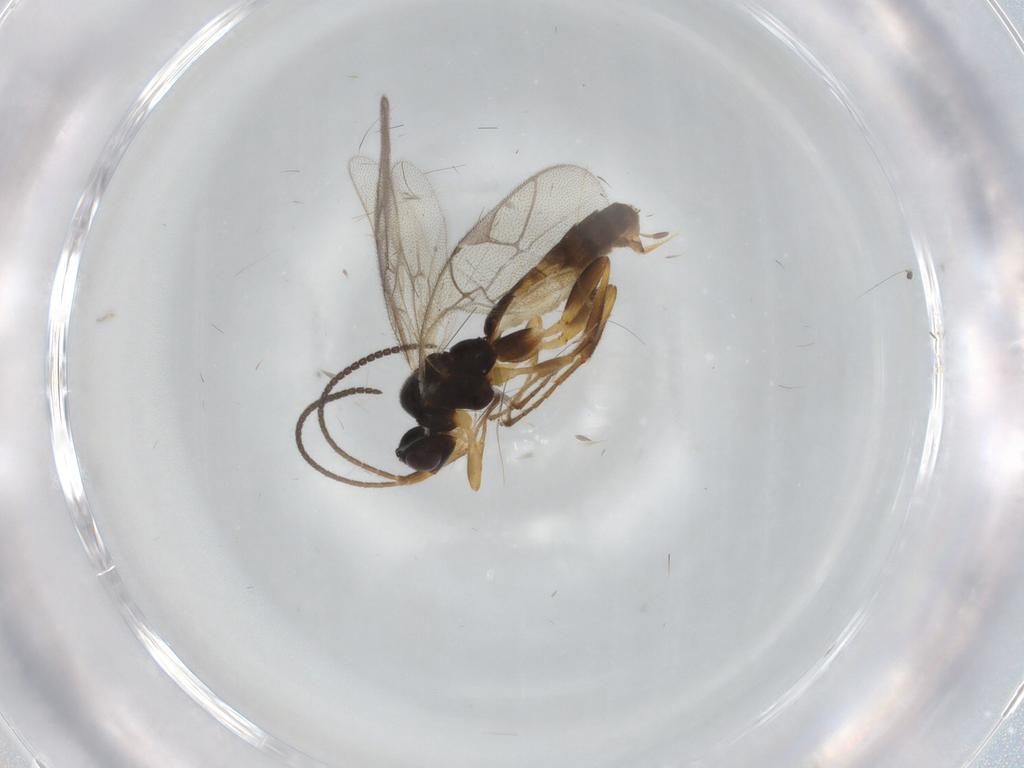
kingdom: Animalia
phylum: Arthropoda
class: Insecta
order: Hymenoptera
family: Ichneumonidae
